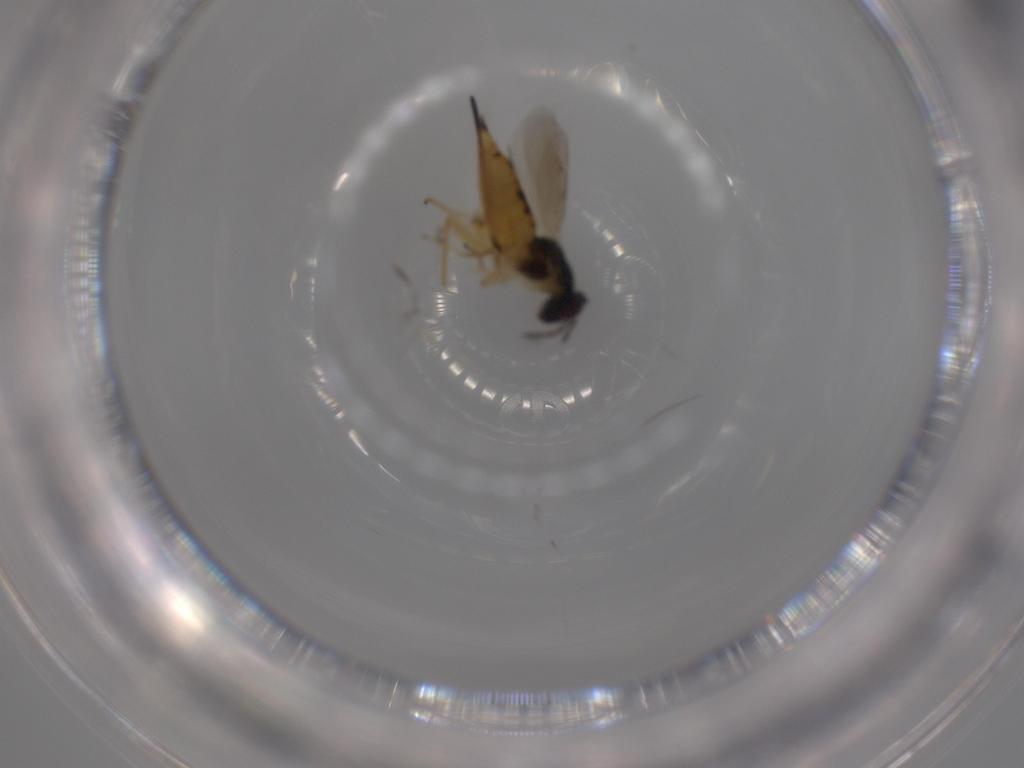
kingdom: Animalia
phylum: Arthropoda
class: Insecta
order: Hymenoptera
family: Eulophidae
